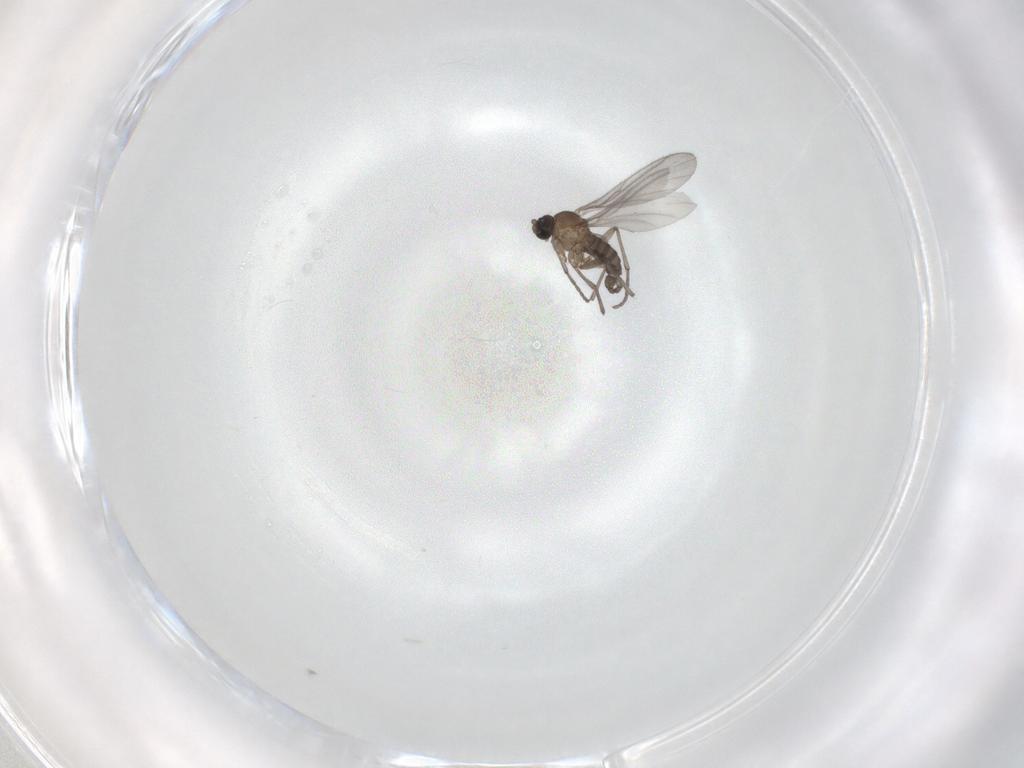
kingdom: Animalia
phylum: Arthropoda
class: Insecta
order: Diptera
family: Sciaridae
